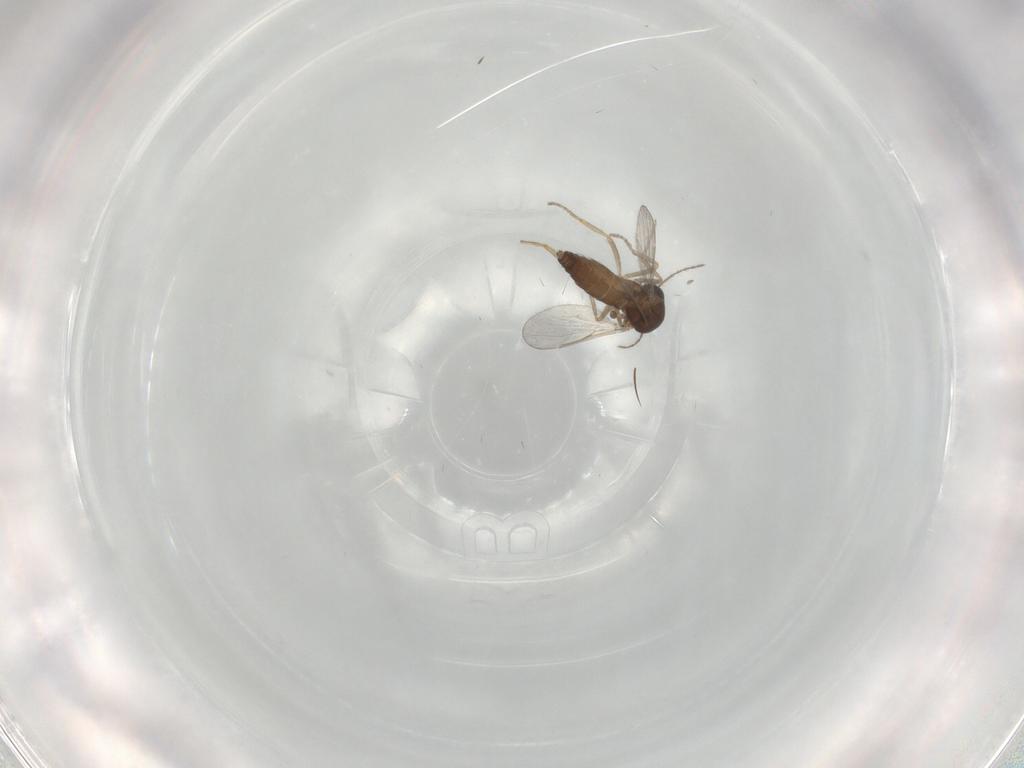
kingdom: Animalia
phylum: Arthropoda
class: Insecta
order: Diptera
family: Ceratopogonidae
